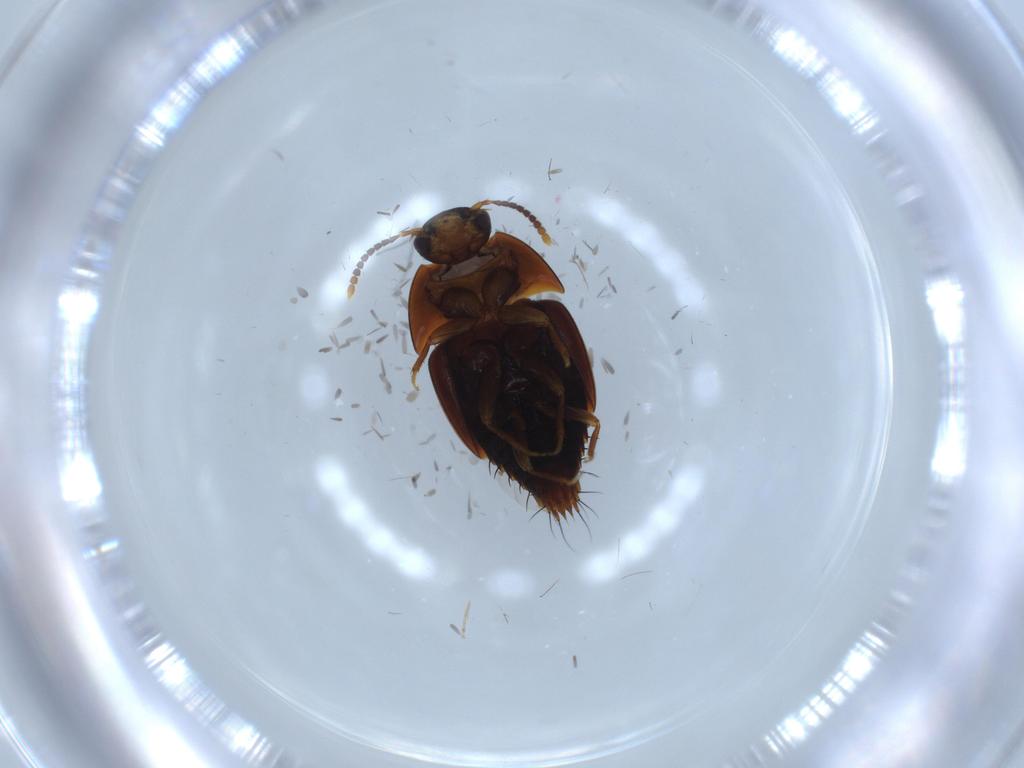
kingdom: Animalia
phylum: Arthropoda
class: Insecta
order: Coleoptera
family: Staphylinidae
